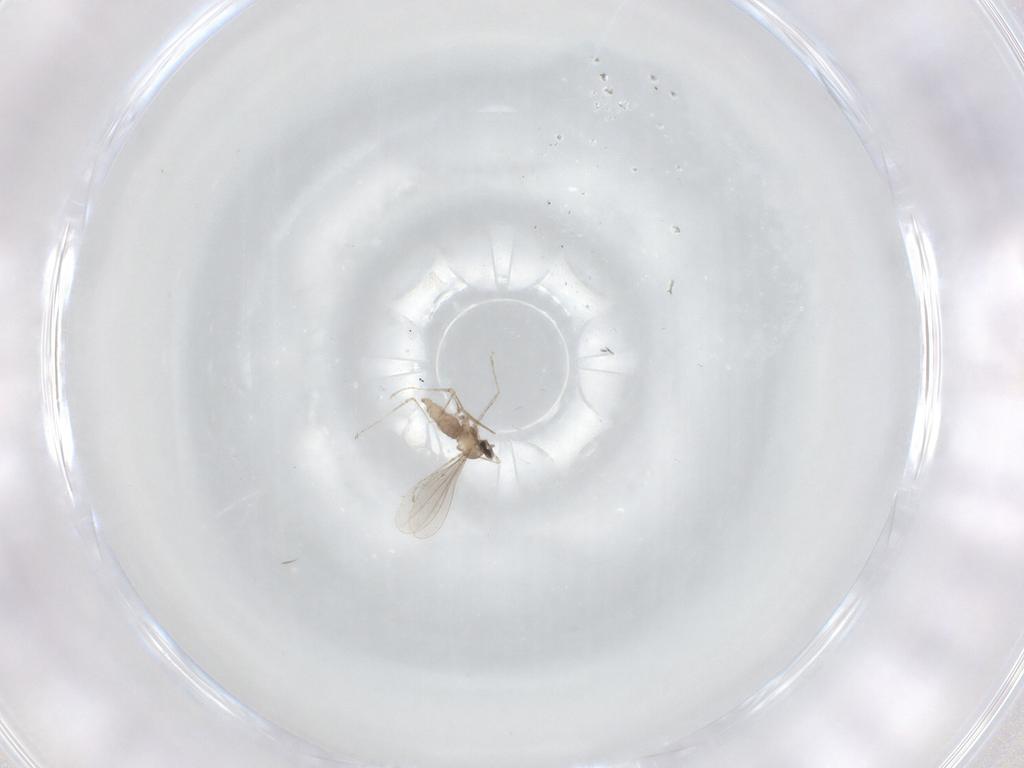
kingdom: Animalia
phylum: Arthropoda
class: Insecta
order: Diptera
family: Cecidomyiidae
